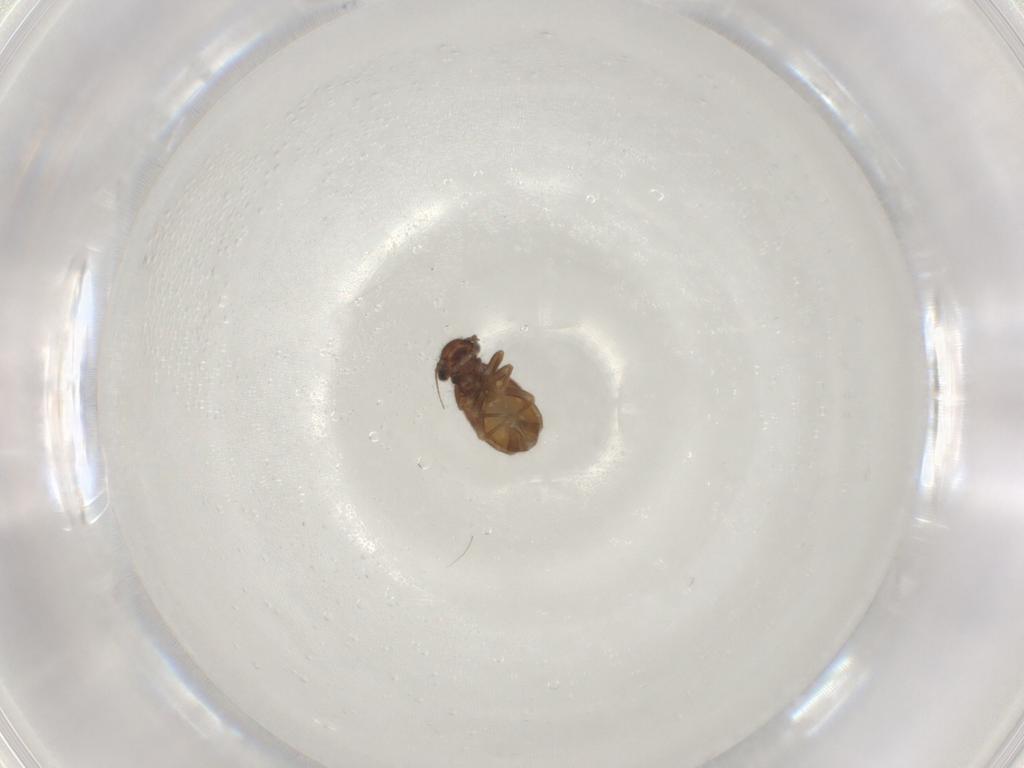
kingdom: Animalia
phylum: Arthropoda
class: Insecta
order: Psocodea
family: Trogiidae
